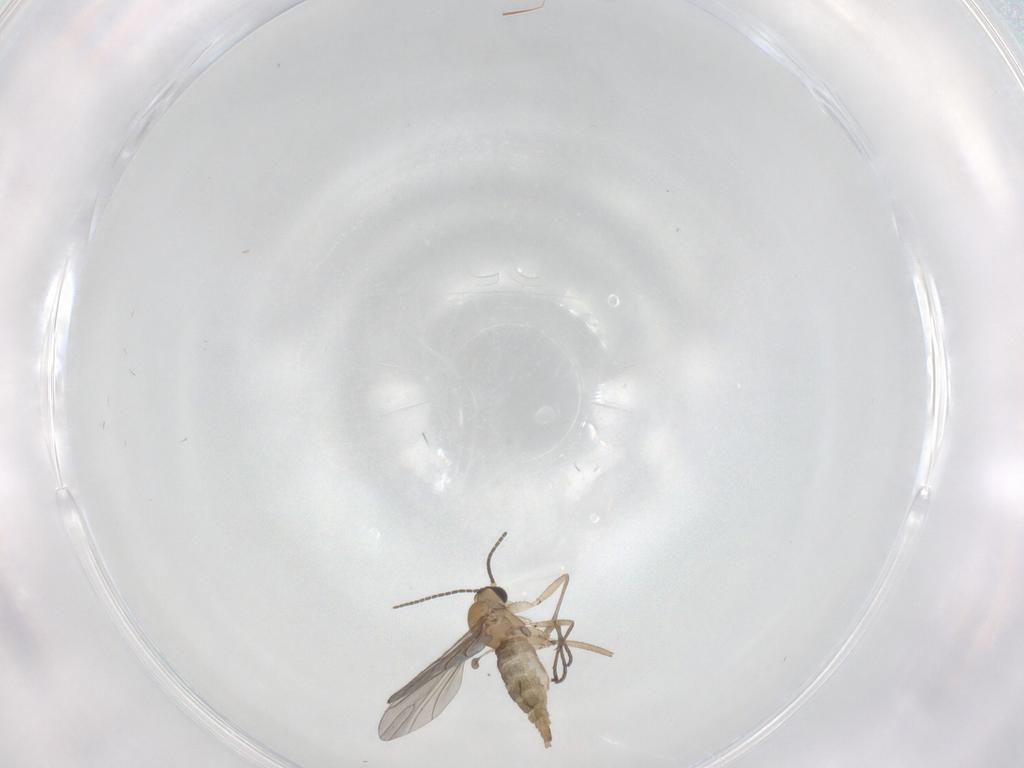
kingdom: Animalia
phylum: Arthropoda
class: Insecta
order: Diptera
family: Sciaridae
